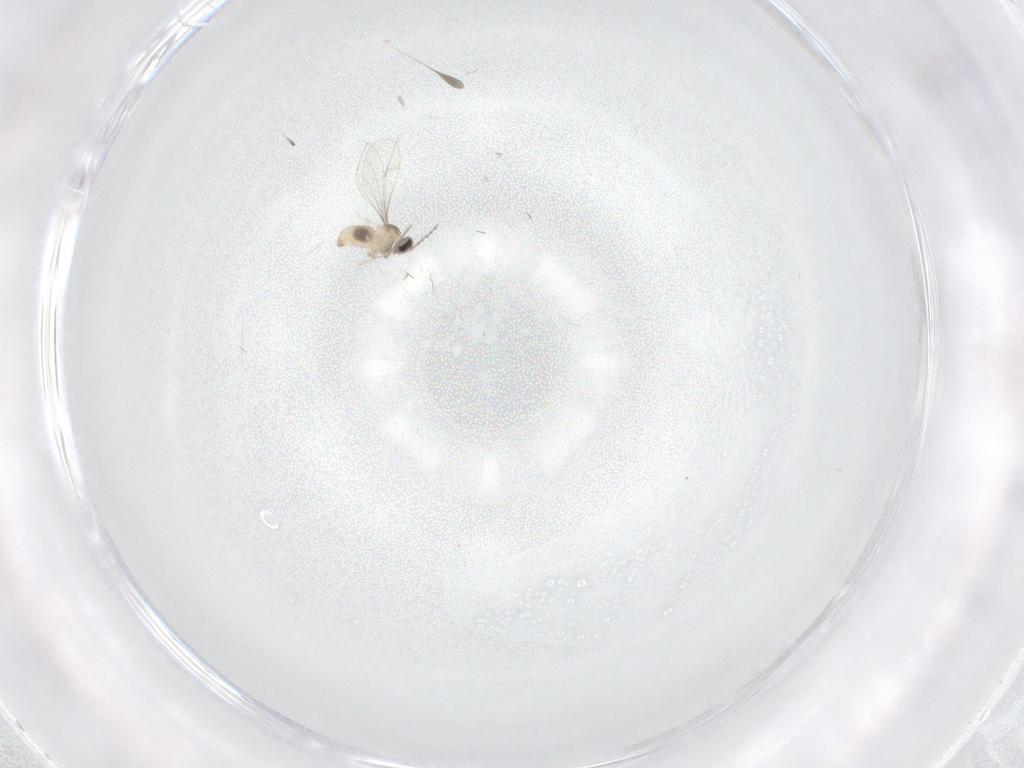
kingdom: Animalia
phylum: Arthropoda
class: Insecta
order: Diptera
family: Cecidomyiidae
